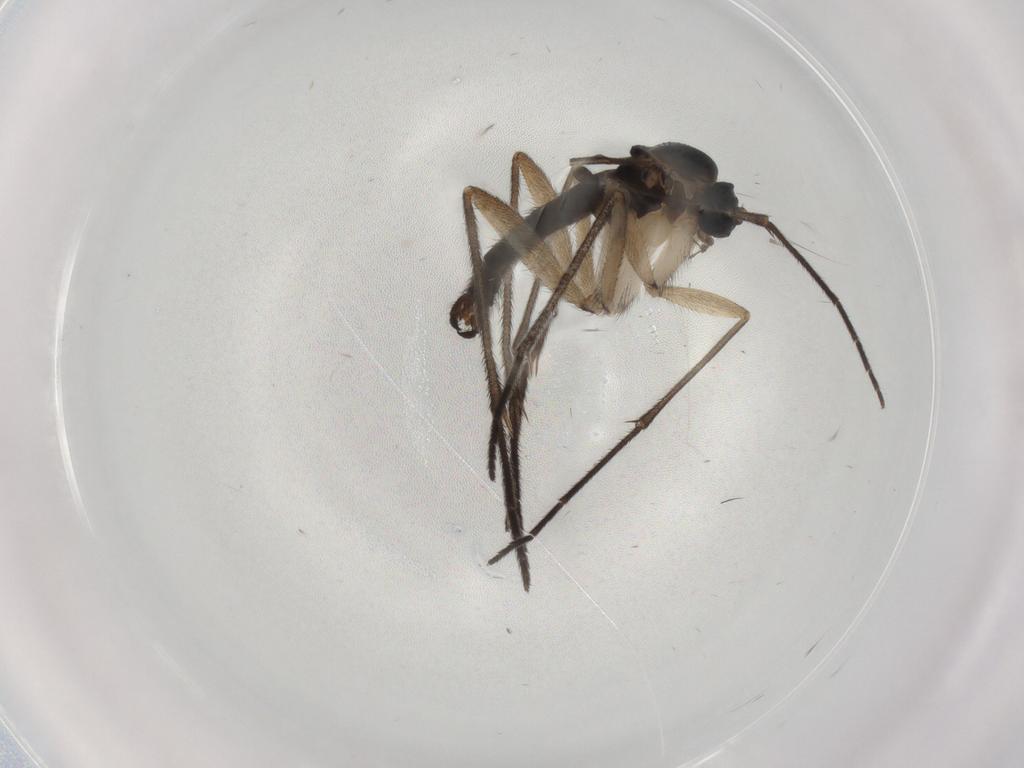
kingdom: Animalia
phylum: Arthropoda
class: Insecta
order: Diptera
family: Sciaridae
